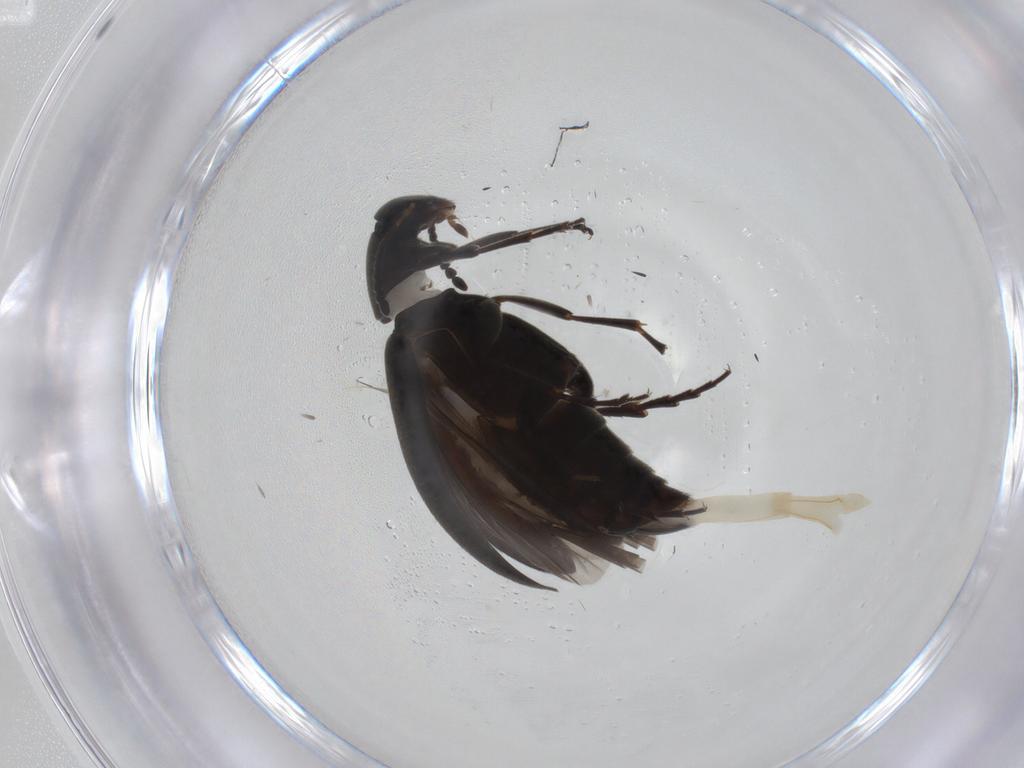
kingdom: Animalia
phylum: Arthropoda
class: Insecta
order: Coleoptera
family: Scraptiidae
